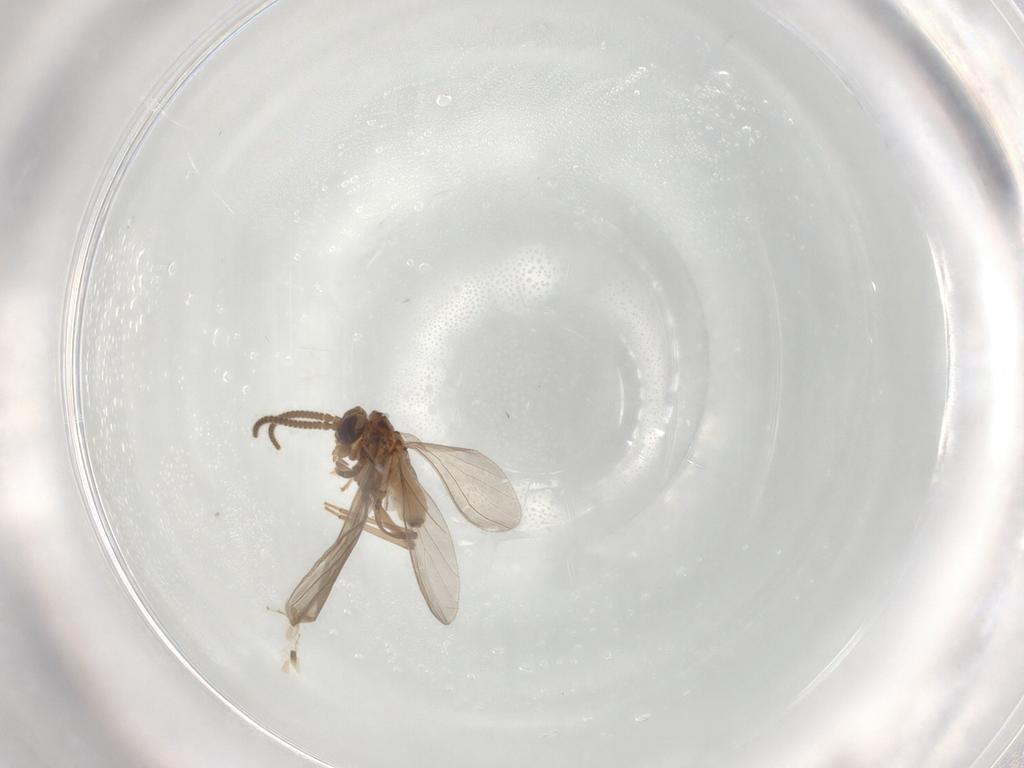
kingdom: Animalia
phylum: Arthropoda
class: Insecta
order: Neuroptera
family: Coniopterygidae
